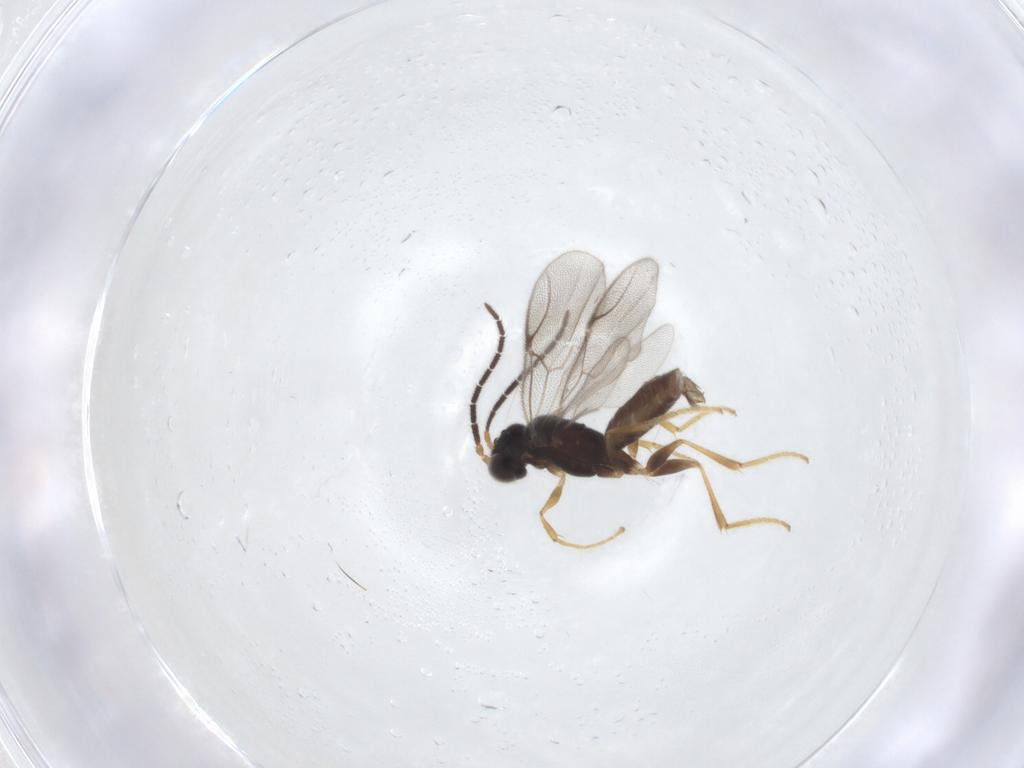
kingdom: Animalia
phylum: Arthropoda
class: Insecta
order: Hymenoptera
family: Dryinidae
